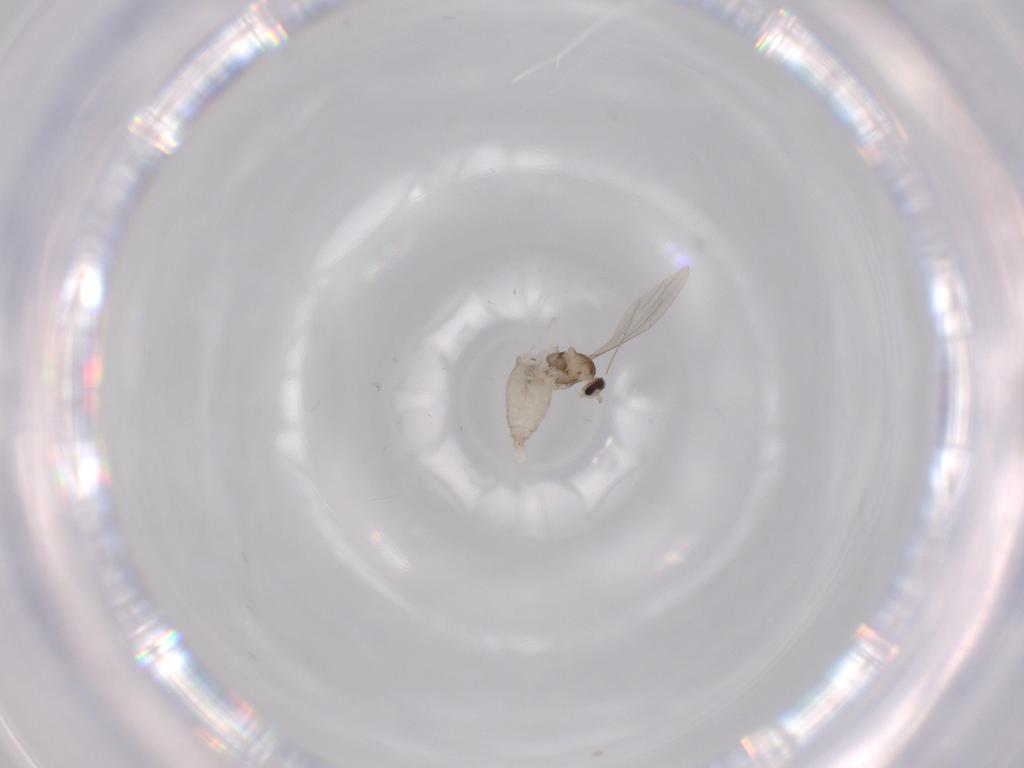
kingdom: Animalia
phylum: Arthropoda
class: Insecta
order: Diptera
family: Cecidomyiidae
